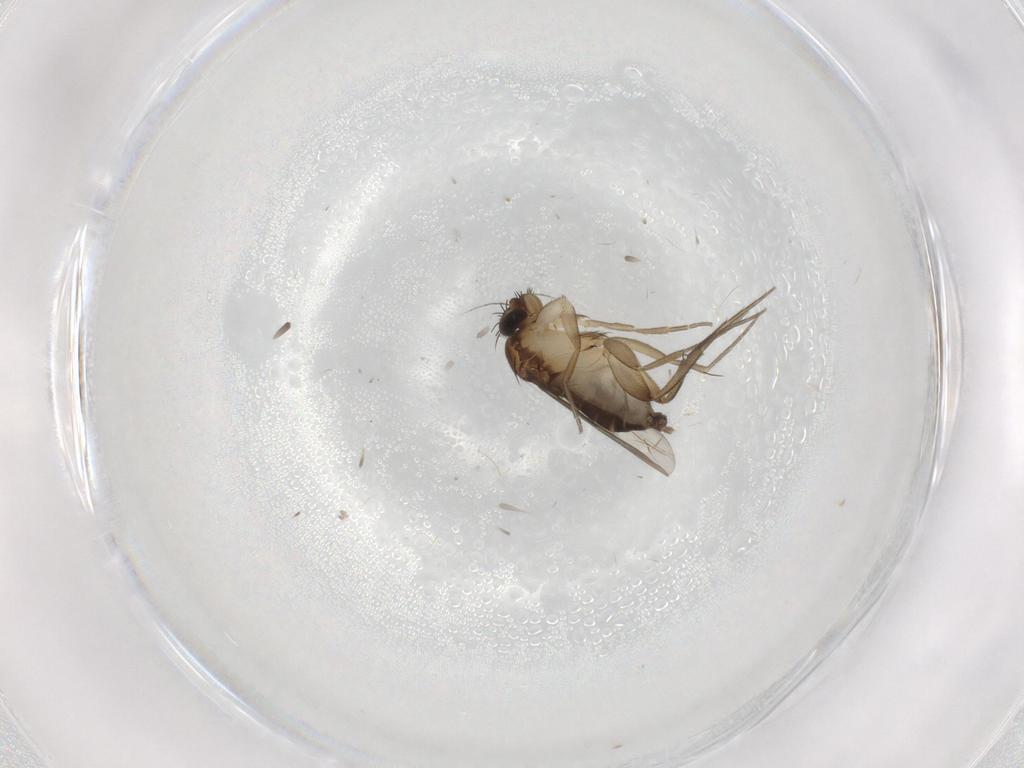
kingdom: Animalia
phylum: Arthropoda
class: Insecta
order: Diptera
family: Phoridae
